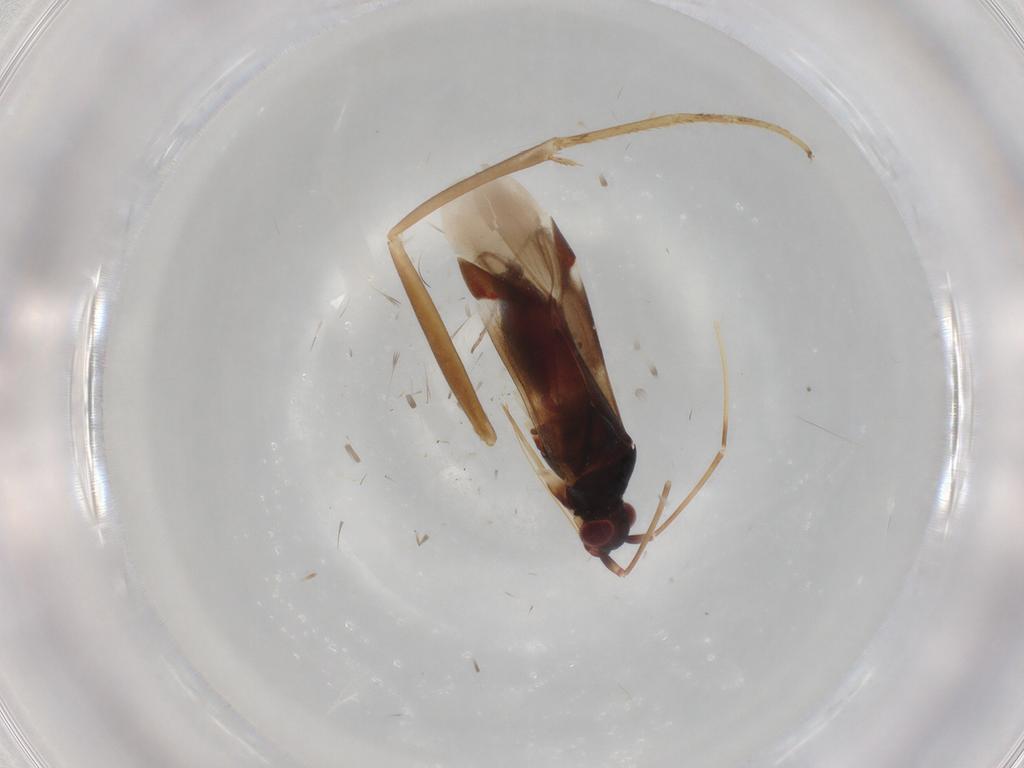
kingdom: Animalia
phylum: Arthropoda
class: Insecta
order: Hemiptera
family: Miridae
